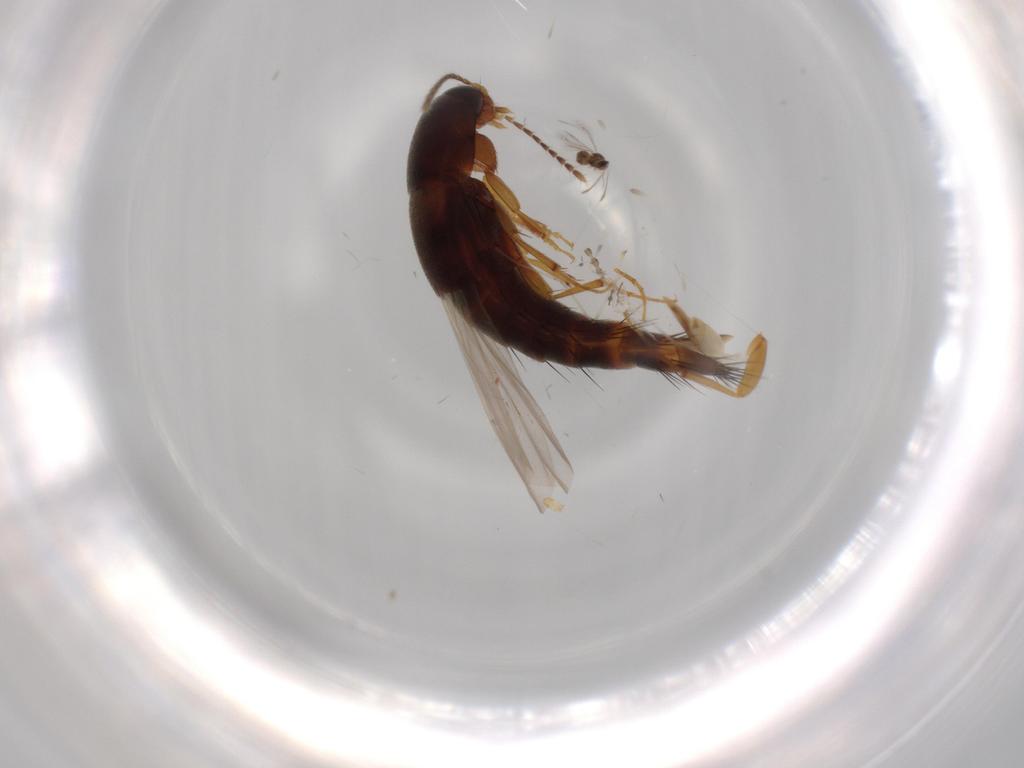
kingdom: Animalia
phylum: Arthropoda
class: Insecta
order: Coleoptera
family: Staphylinidae
